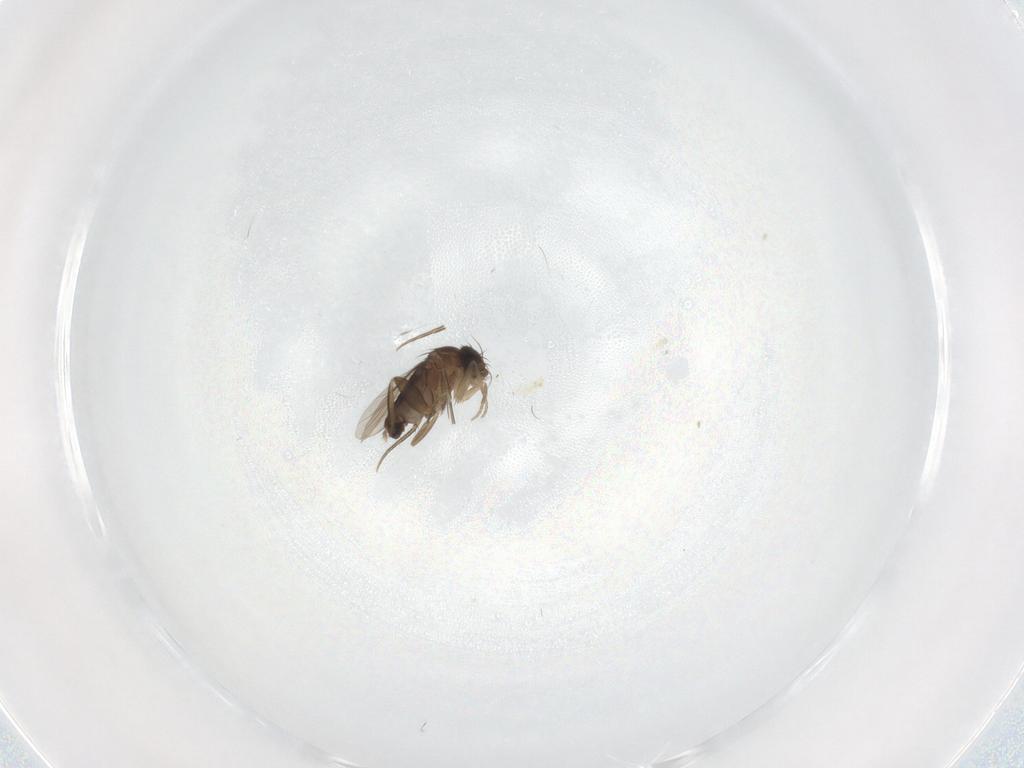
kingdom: Animalia
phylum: Arthropoda
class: Insecta
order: Diptera
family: Phoridae
